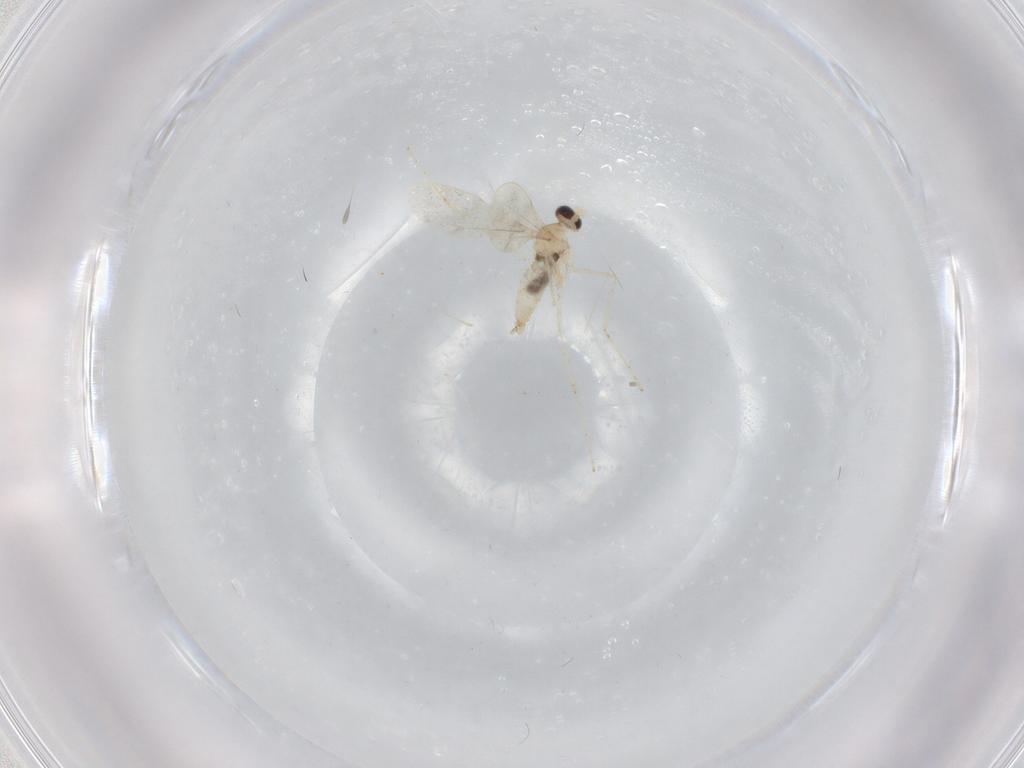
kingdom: Animalia
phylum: Arthropoda
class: Insecta
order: Diptera
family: Cecidomyiidae
